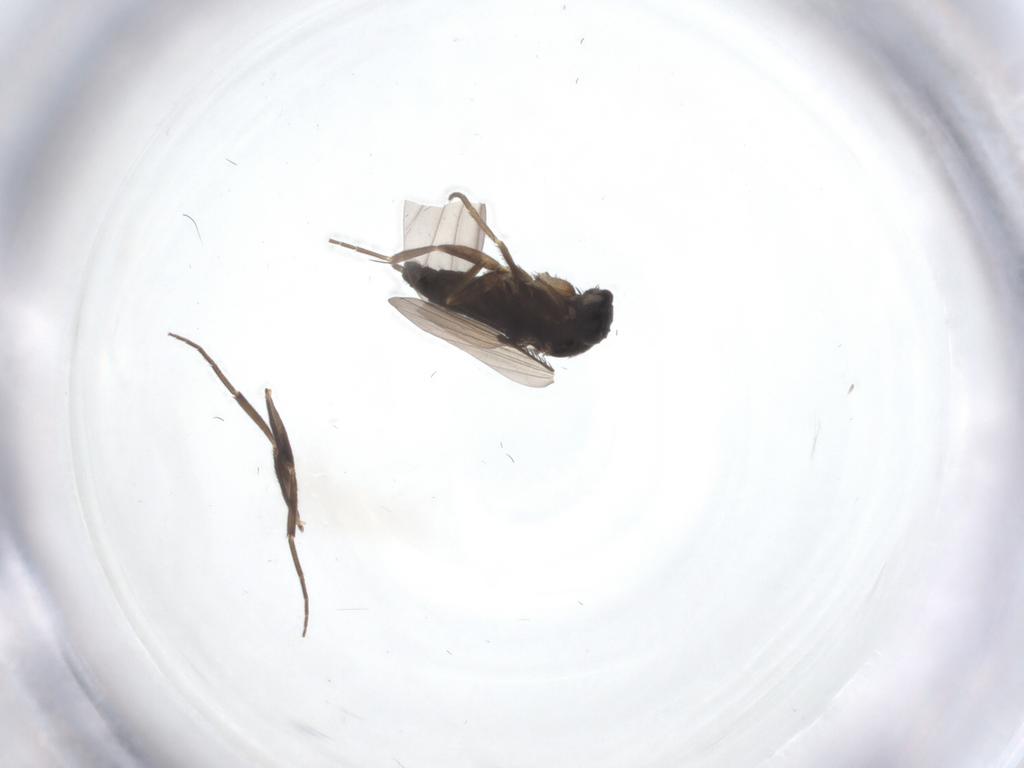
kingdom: Animalia
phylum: Arthropoda
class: Insecta
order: Diptera
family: Phoridae
